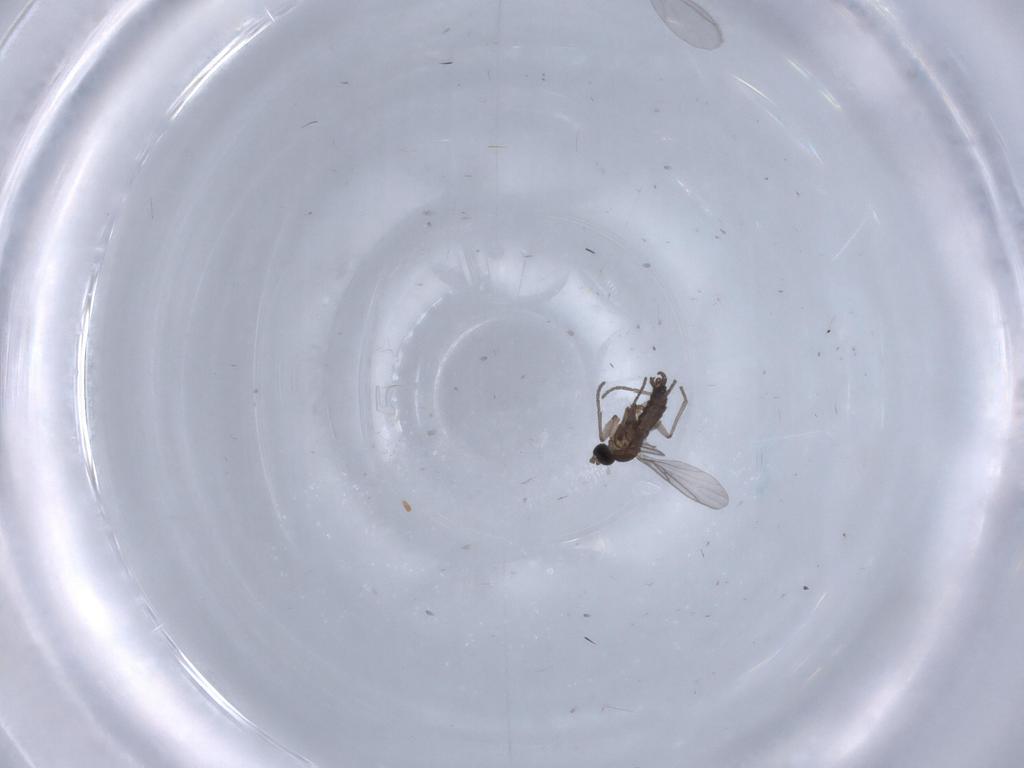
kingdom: Animalia
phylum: Arthropoda
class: Insecta
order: Diptera
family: Cecidomyiidae
